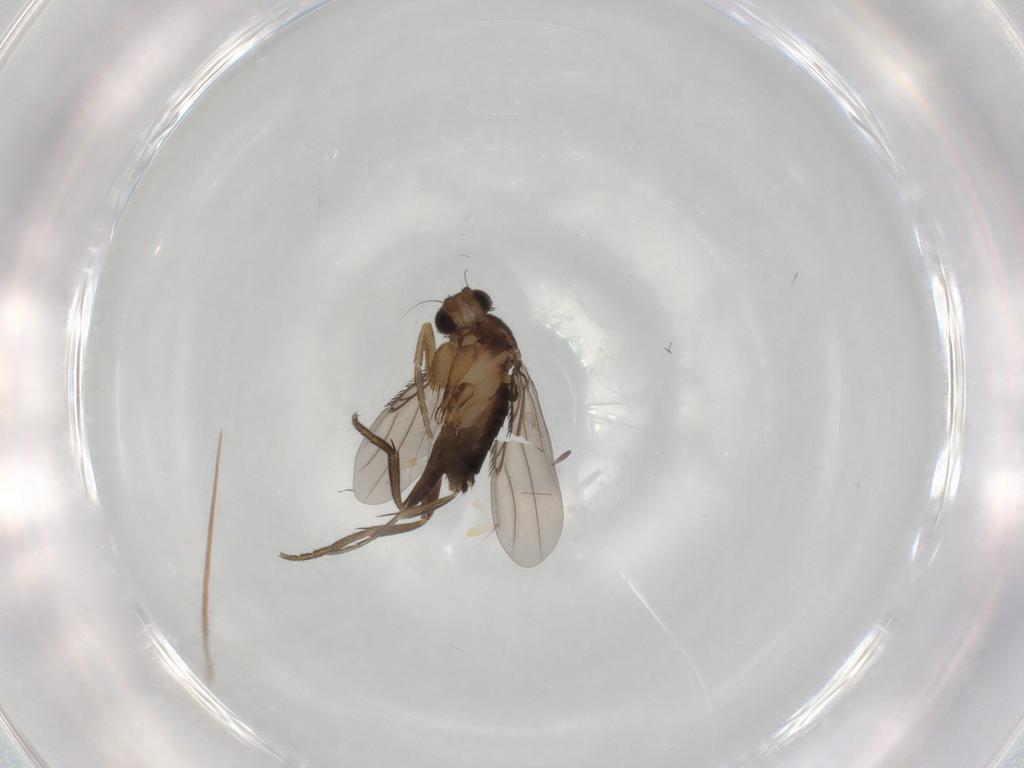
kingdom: Animalia
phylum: Arthropoda
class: Insecta
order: Diptera
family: Phoridae
